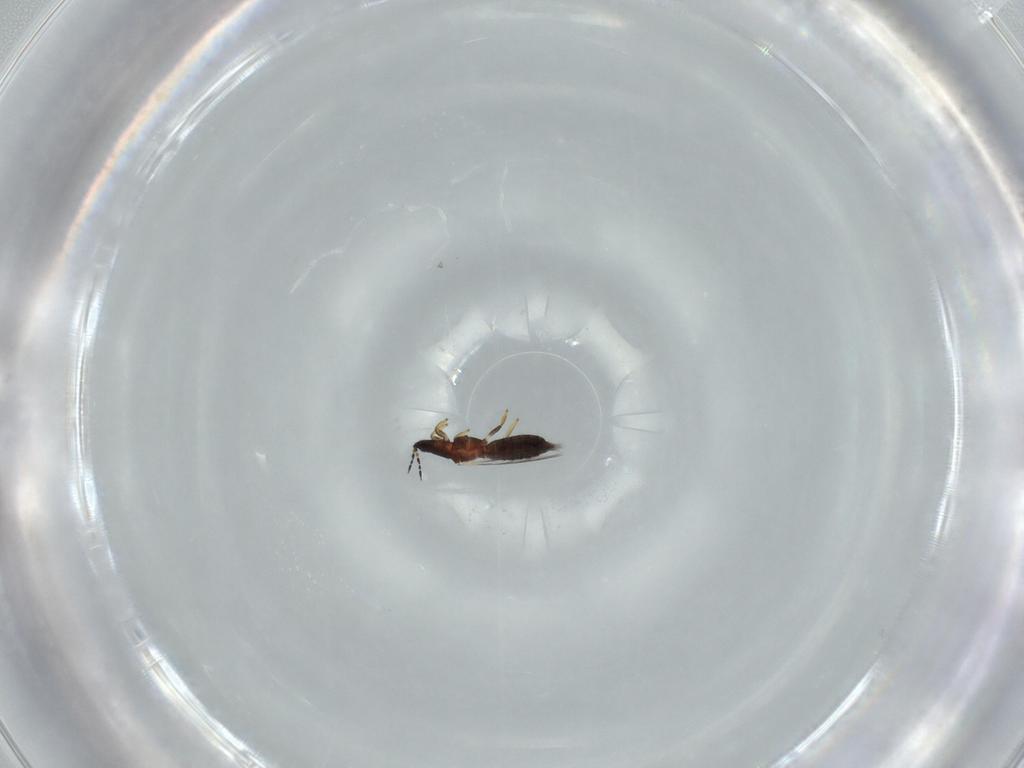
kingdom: Animalia
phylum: Arthropoda
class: Insecta
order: Thysanoptera
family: Thripidae
